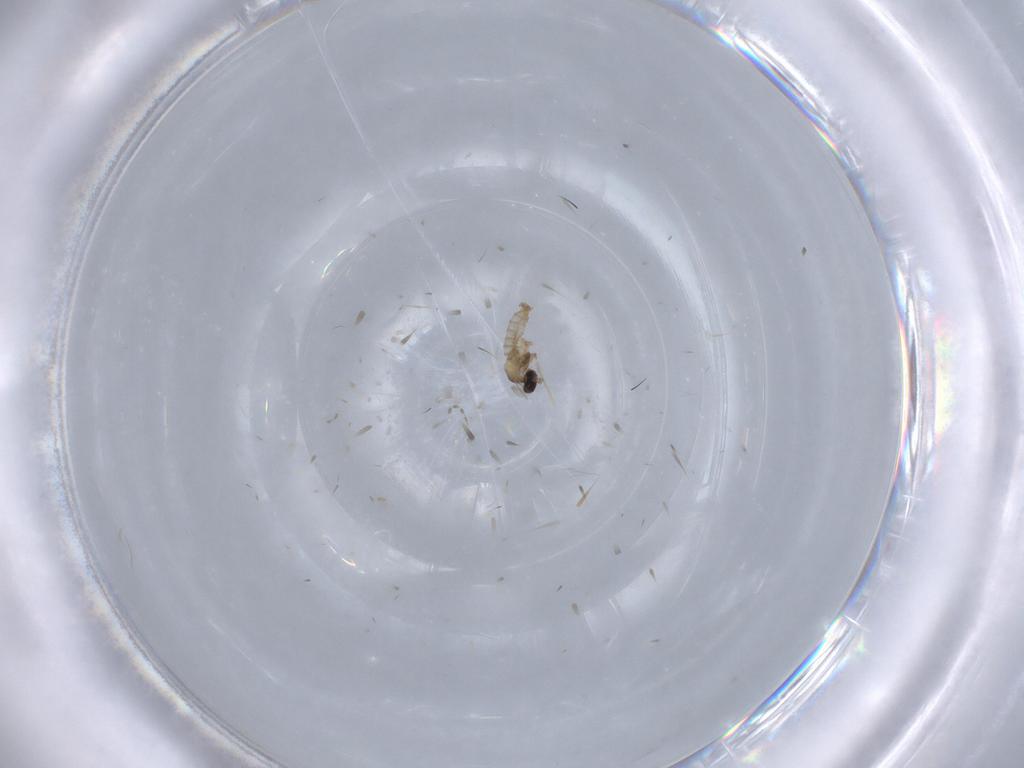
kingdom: Animalia
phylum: Arthropoda
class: Insecta
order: Diptera
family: Cecidomyiidae
